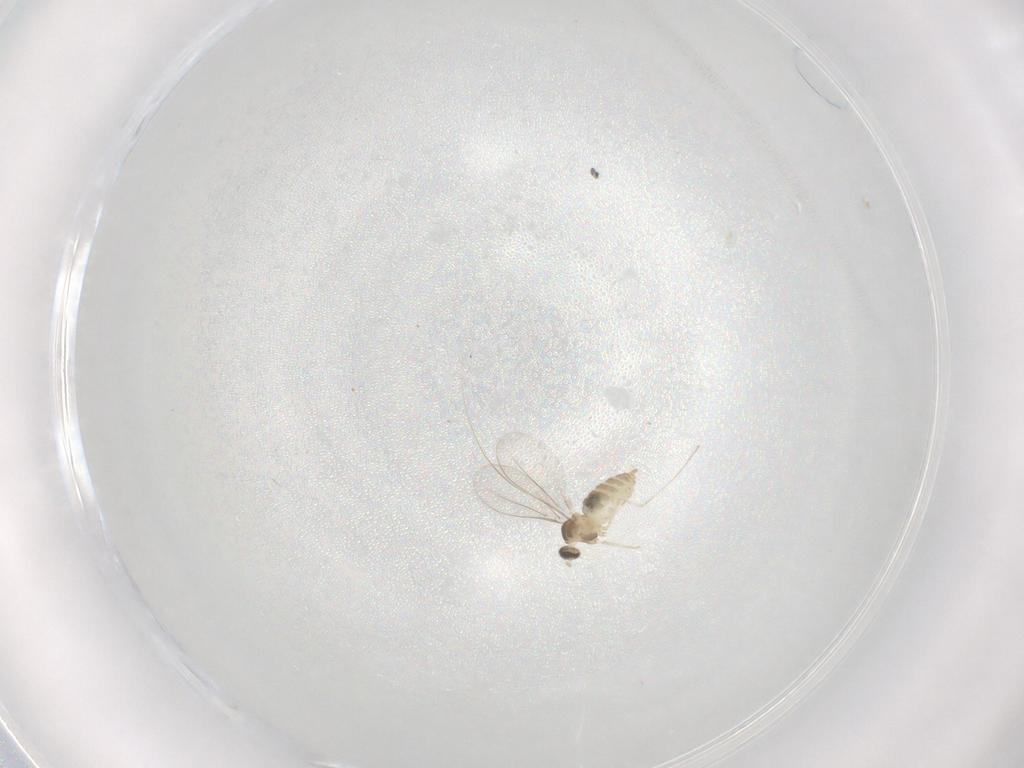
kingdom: Animalia
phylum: Arthropoda
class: Insecta
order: Diptera
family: Cecidomyiidae
